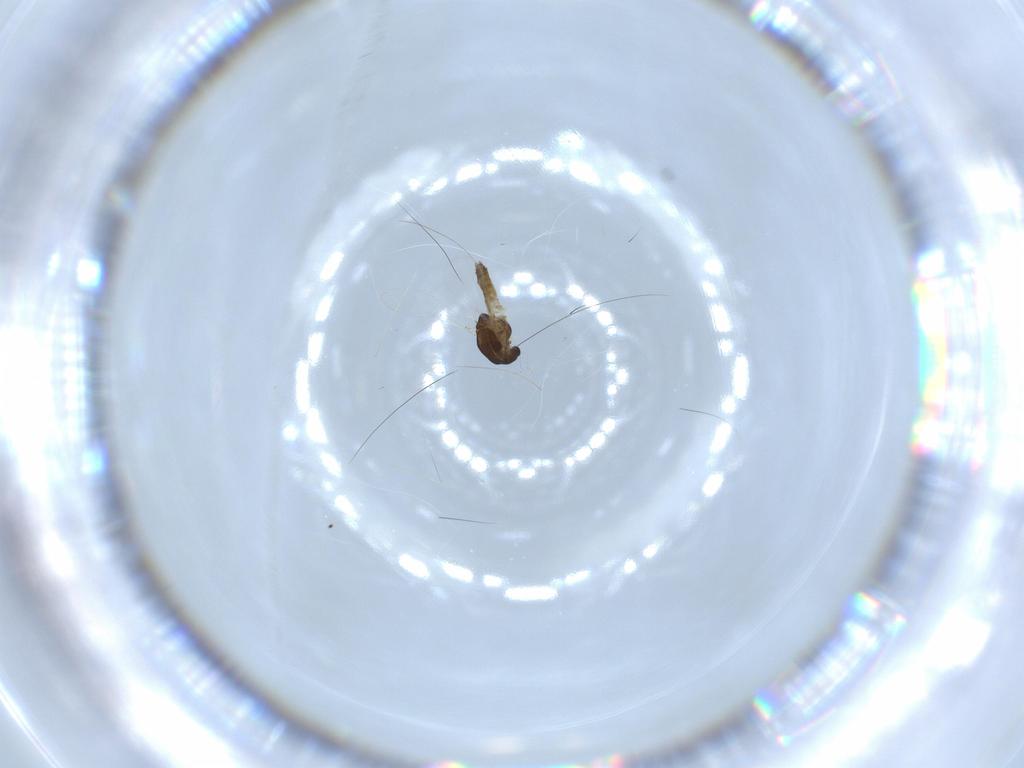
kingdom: Animalia
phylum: Arthropoda
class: Insecta
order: Diptera
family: Chironomidae
